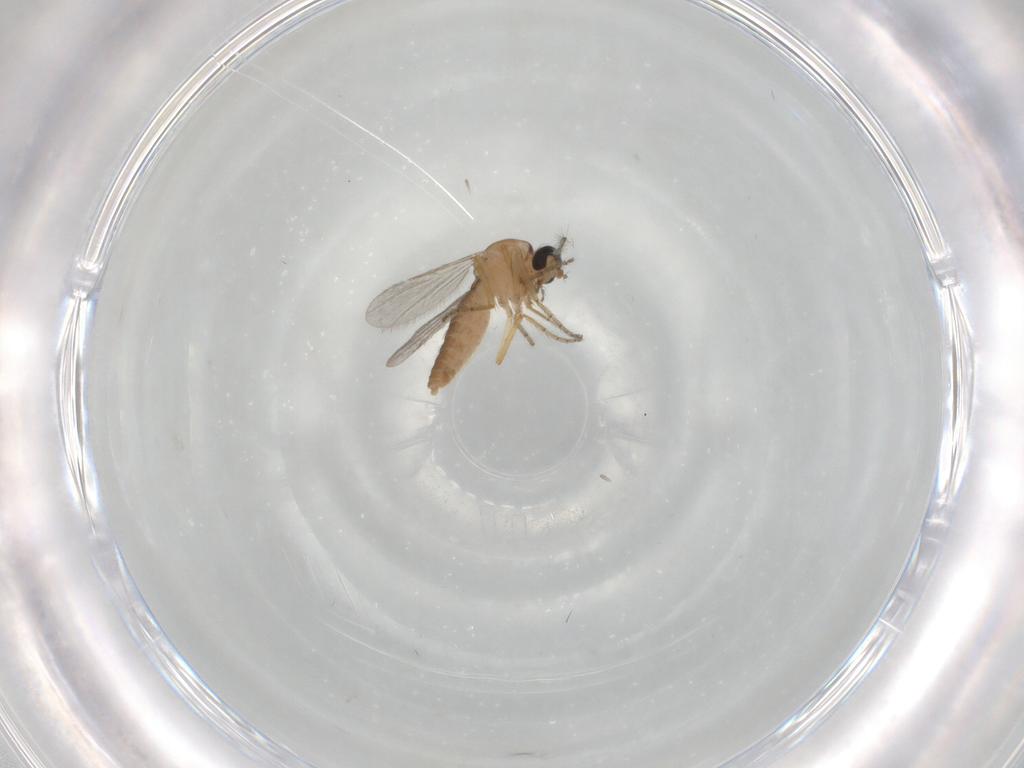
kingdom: Animalia
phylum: Arthropoda
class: Insecta
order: Diptera
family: Ceratopogonidae
